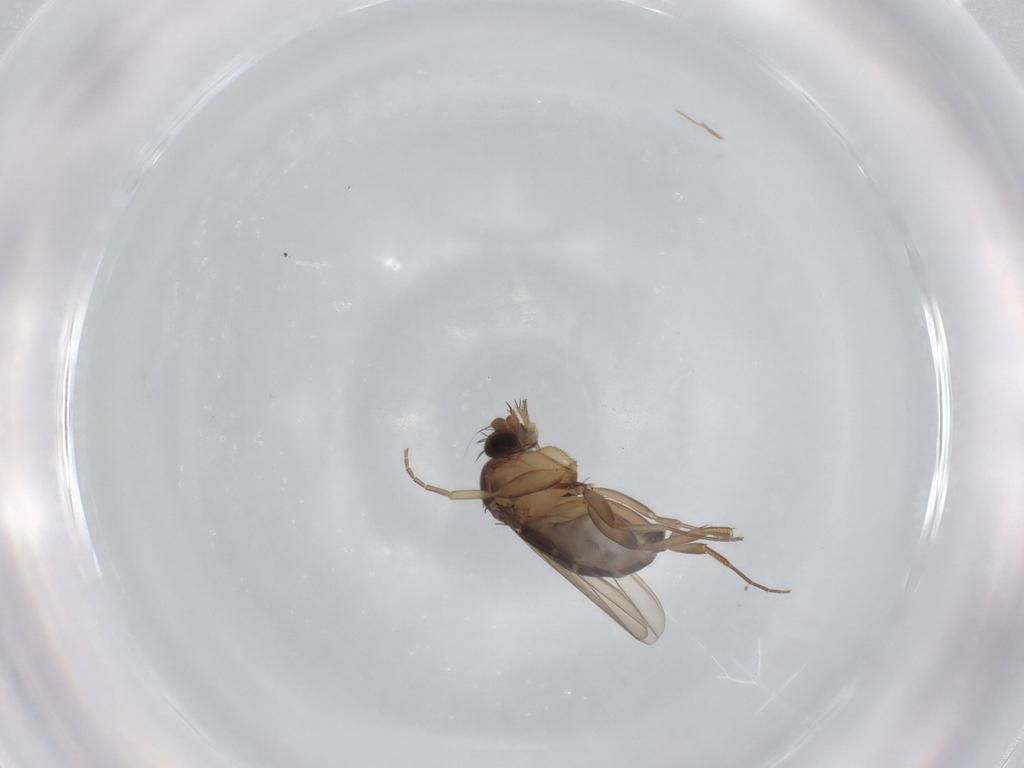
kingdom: Animalia
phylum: Arthropoda
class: Insecta
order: Diptera
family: Phoridae
